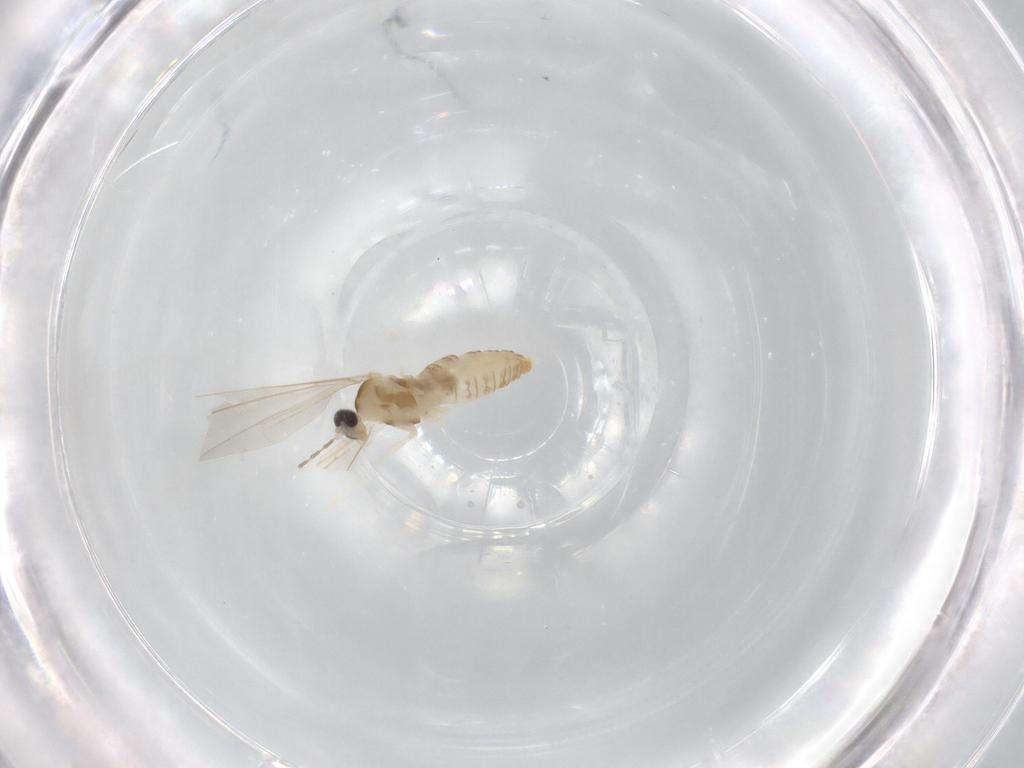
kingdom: Animalia
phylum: Arthropoda
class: Insecta
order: Diptera
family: Cecidomyiidae
